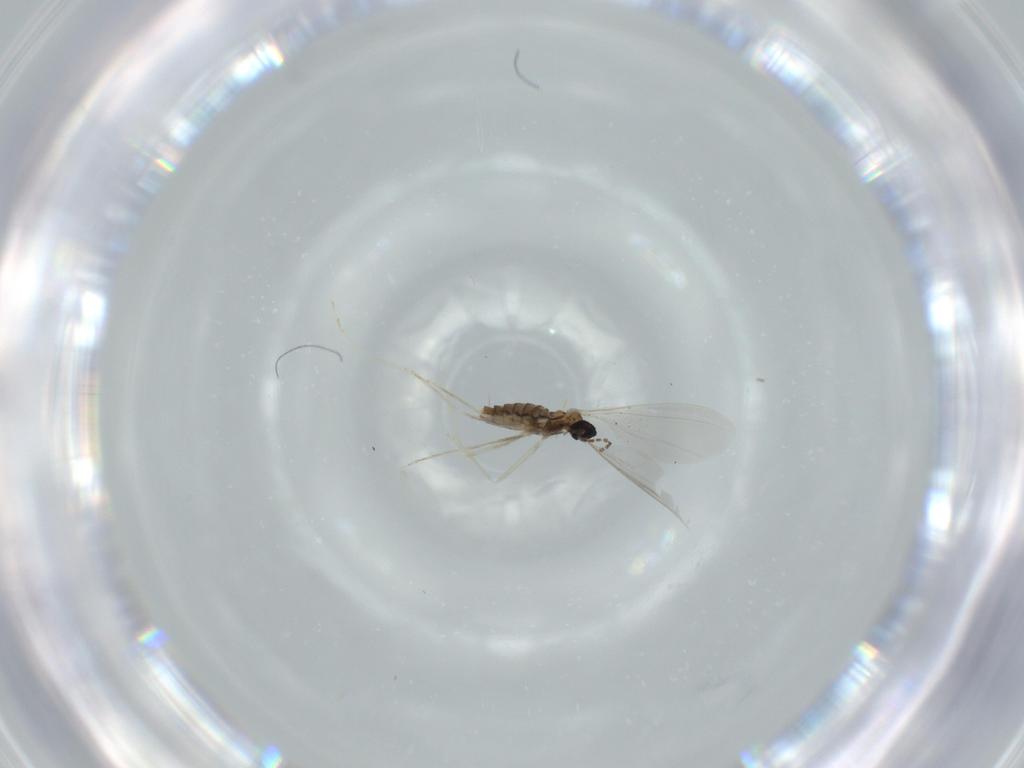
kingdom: Animalia
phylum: Arthropoda
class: Insecta
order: Diptera
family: Cecidomyiidae
